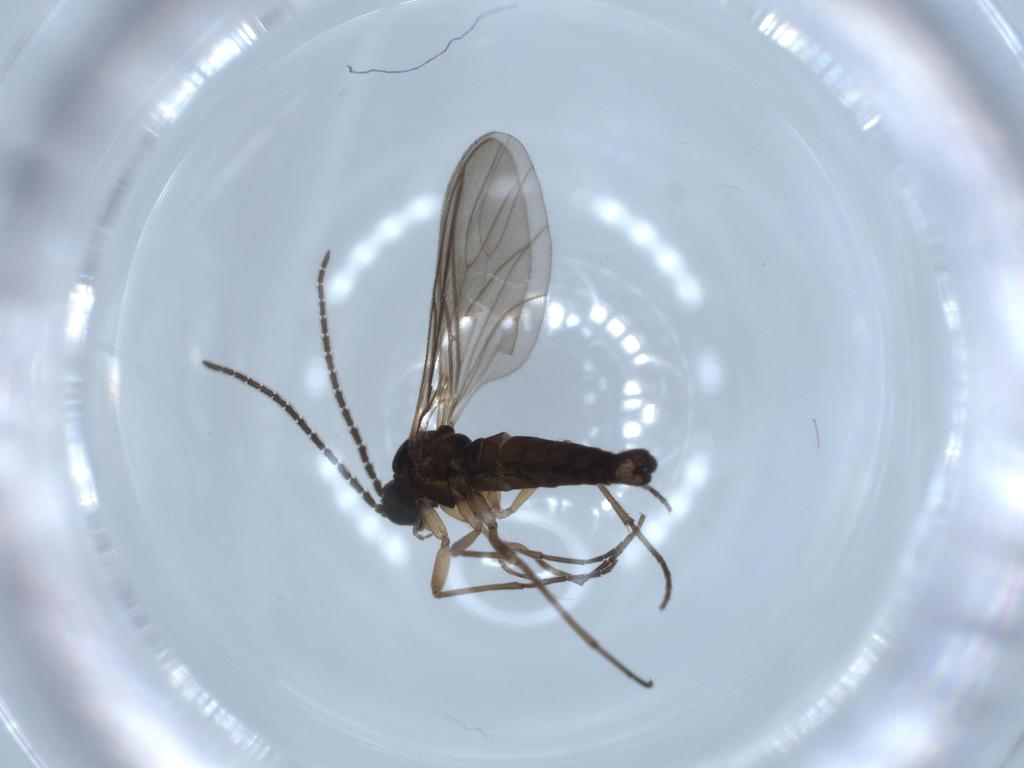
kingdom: Animalia
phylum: Arthropoda
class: Insecta
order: Diptera
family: Sciaridae
